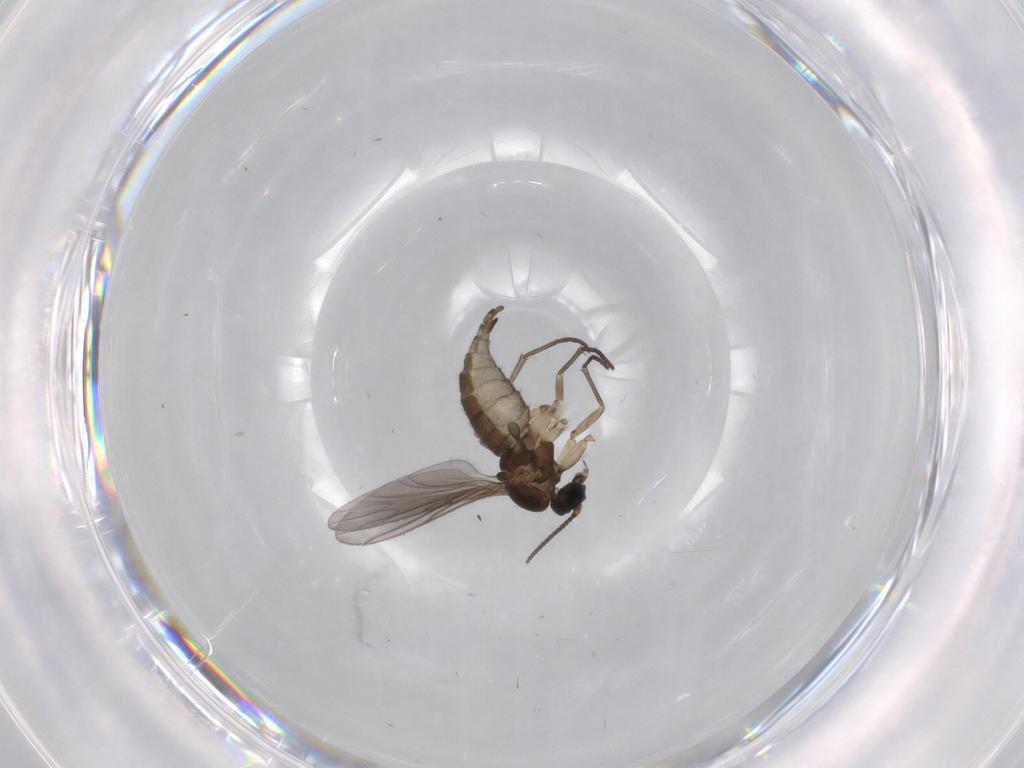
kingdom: Animalia
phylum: Arthropoda
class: Insecta
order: Diptera
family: Sciaridae
